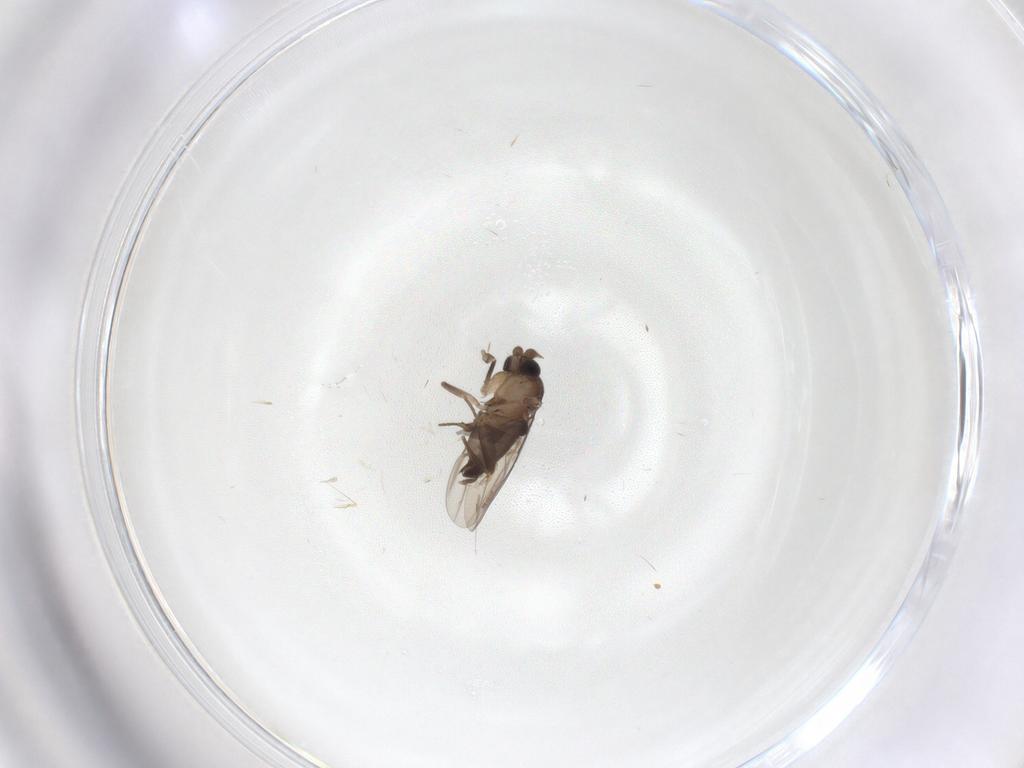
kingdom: Animalia
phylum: Arthropoda
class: Insecta
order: Diptera
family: Phoridae
